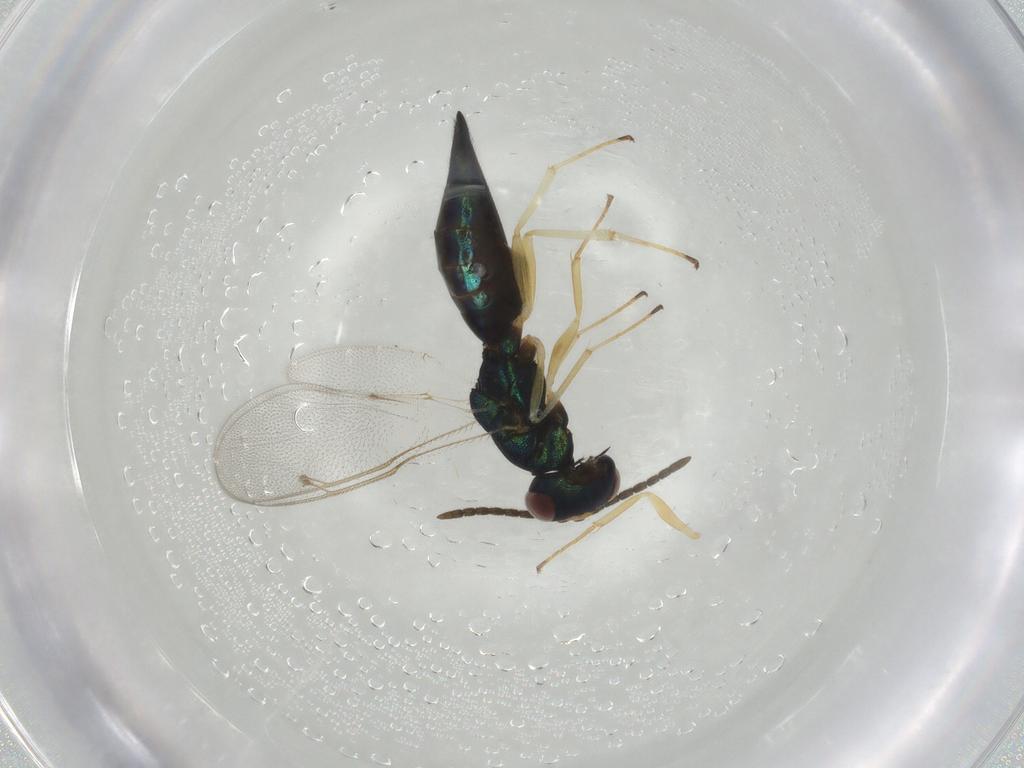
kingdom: Animalia
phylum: Arthropoda
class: Insecta
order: Hymenoptera
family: Pteromalidae
